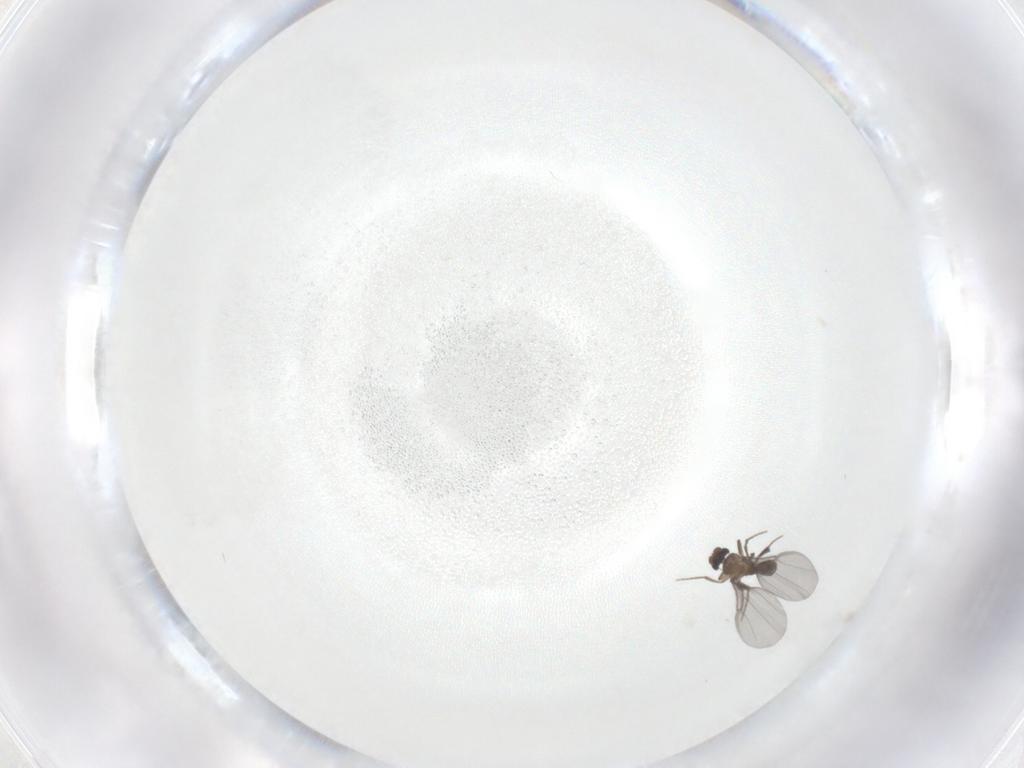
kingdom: Animalia
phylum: Arthropoda
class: Insecta
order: Diptera
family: Phoridae
